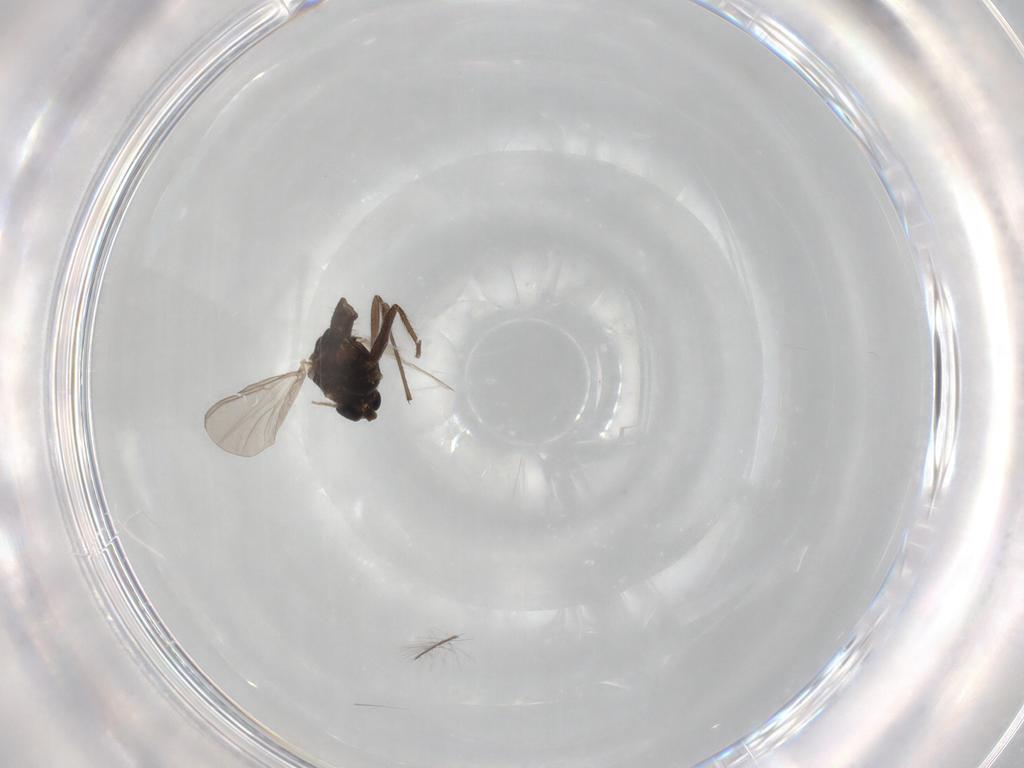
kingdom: Animalia
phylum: Arthropoda
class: Insecta
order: Diptera
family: Chironomidae
